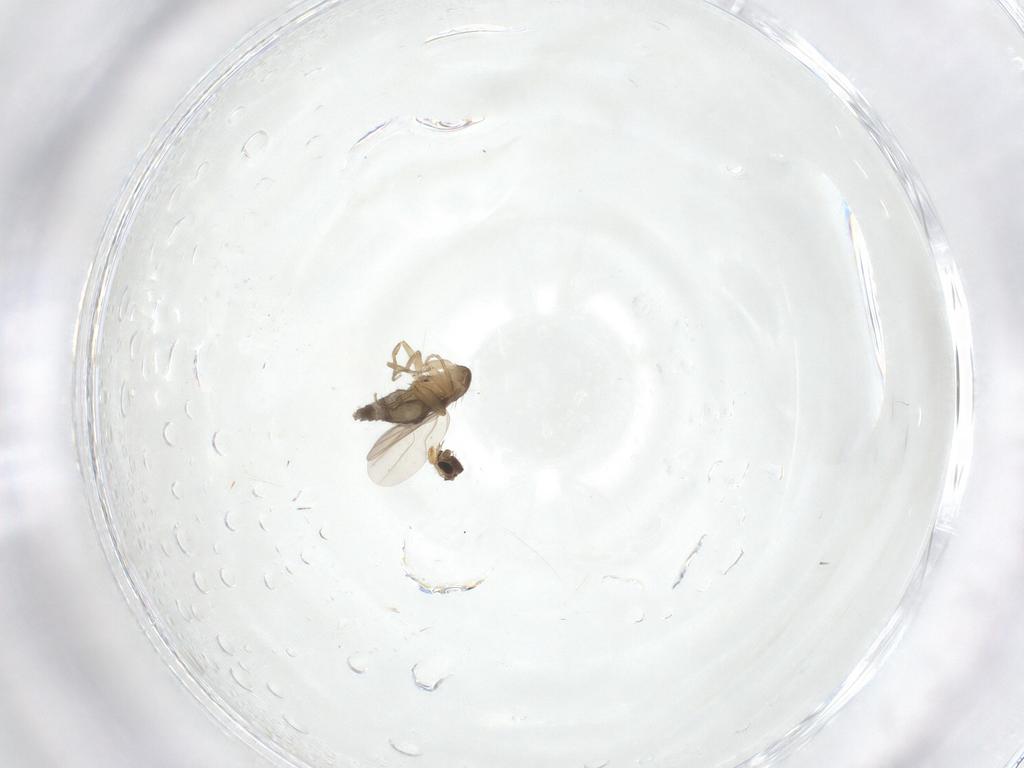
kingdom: Animalia
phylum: Arthropoda
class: Insecta
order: Diptera
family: Phoridae
